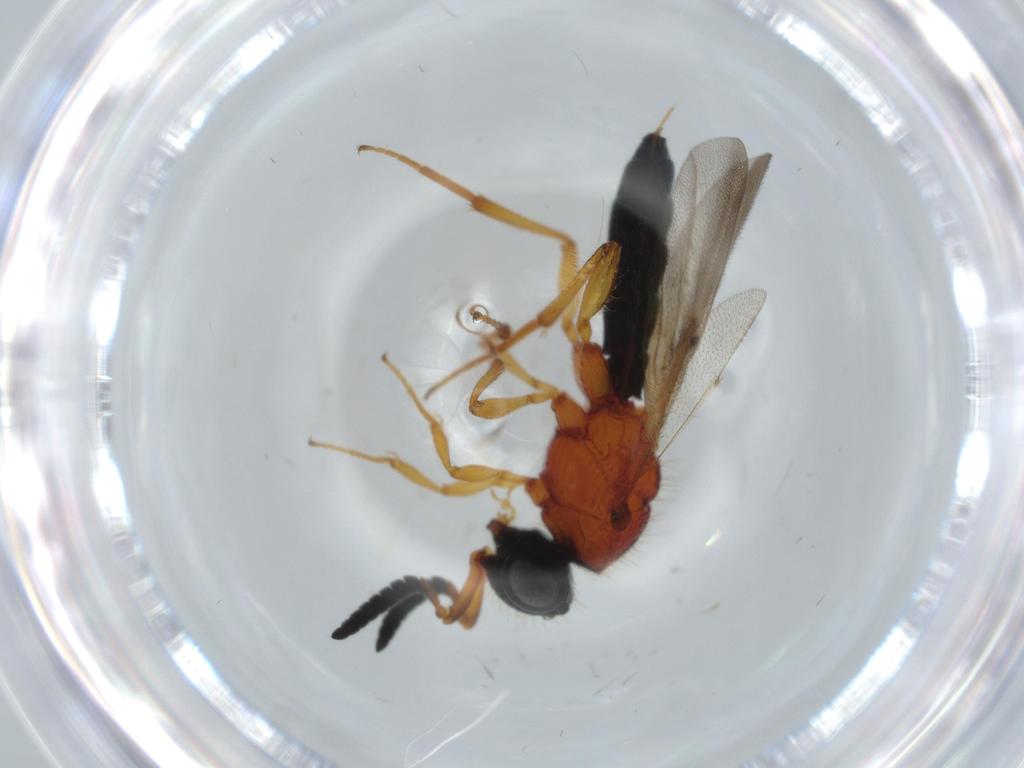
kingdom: Animalia
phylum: Arthropoda
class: Insecta
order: Hymenoptera
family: Scelionidae
